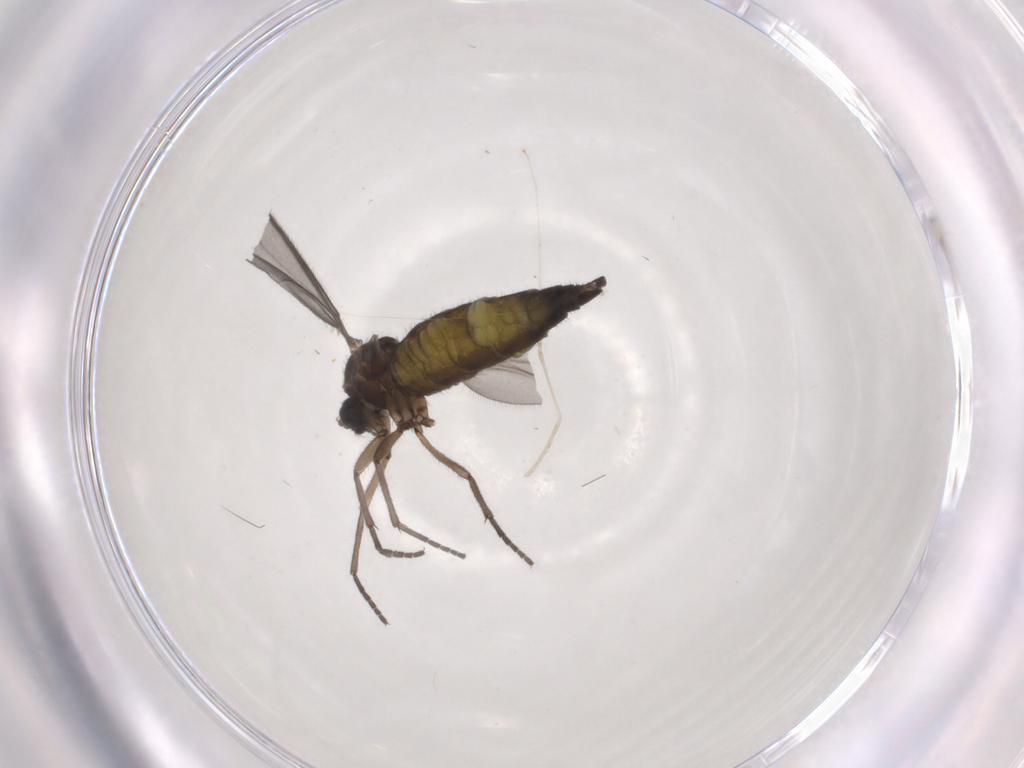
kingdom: Animalia
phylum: Arthropoda
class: Insecta
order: Diptera
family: Sciaridae
